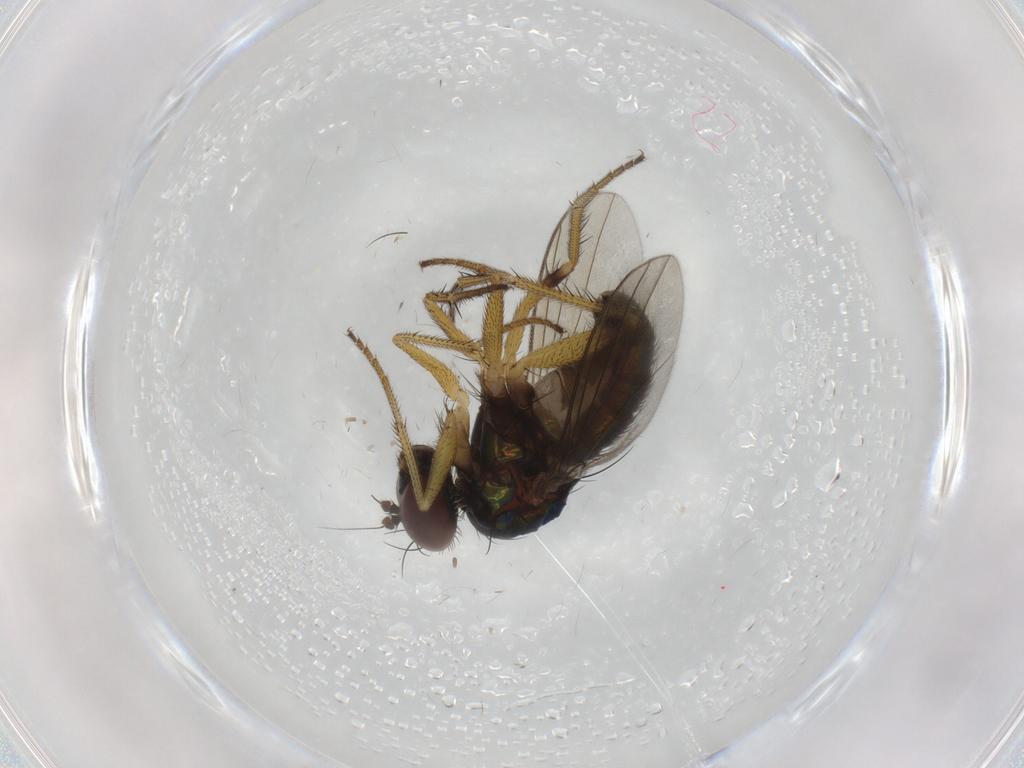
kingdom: Animalia
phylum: Arthropoda
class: Insecta
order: Diptera
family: Dolichopodidae
